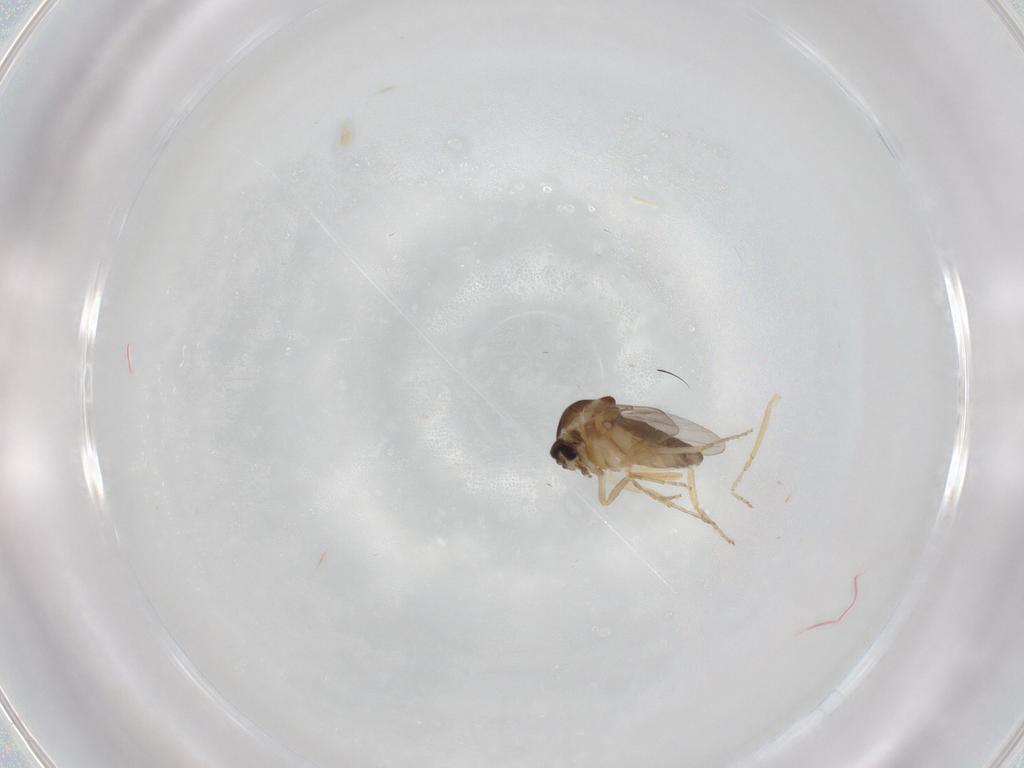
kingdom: Animalia
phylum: Arthropoda
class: Insecta
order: Diptera
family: Ceratopogonidae
